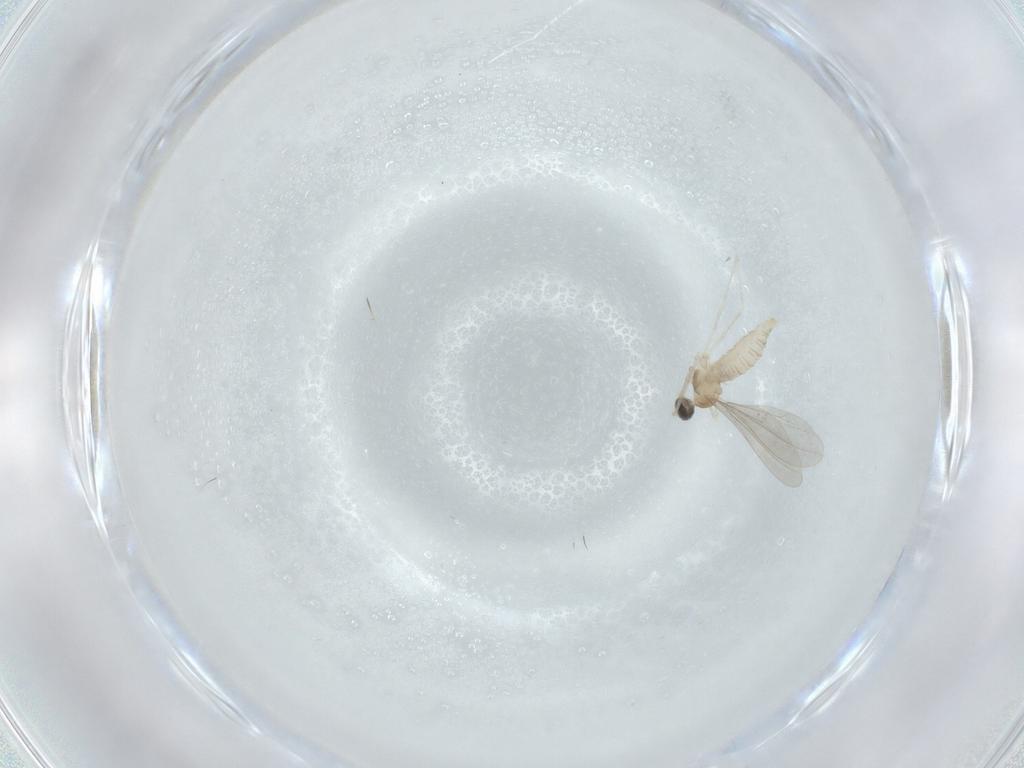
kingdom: Animalia
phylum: Arthropoda
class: Insecta
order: Diptera
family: Cecidomyiidae
